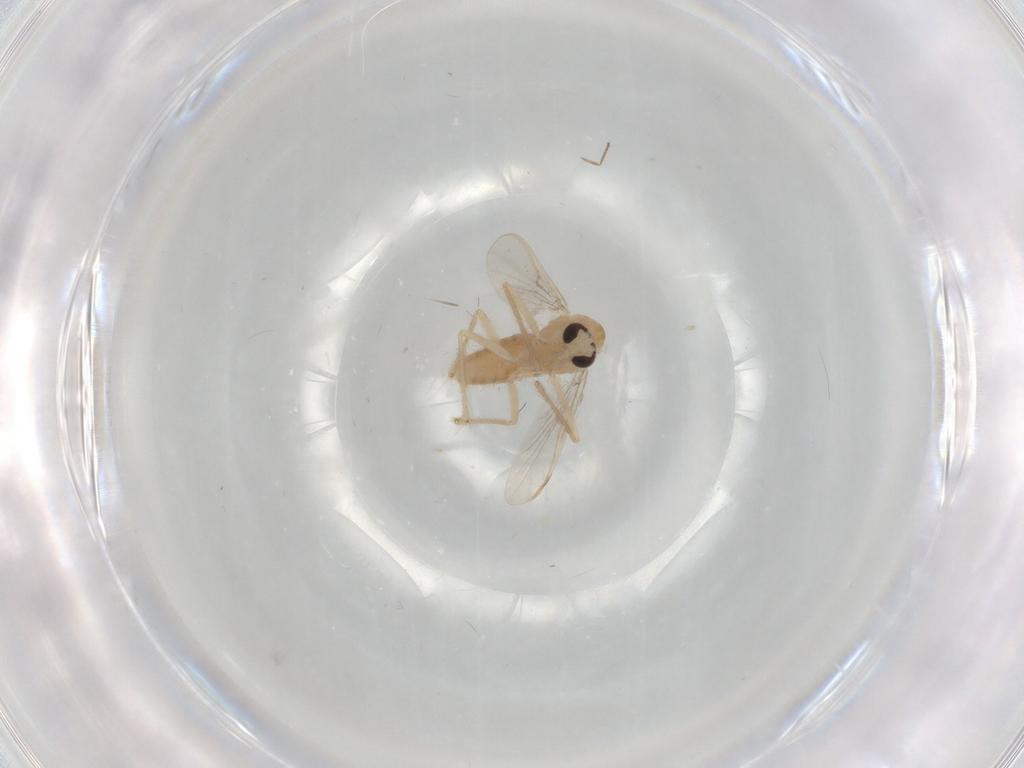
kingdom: Animalia
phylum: Arthropoda
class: Insecta
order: Diptera
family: Chironomidae
